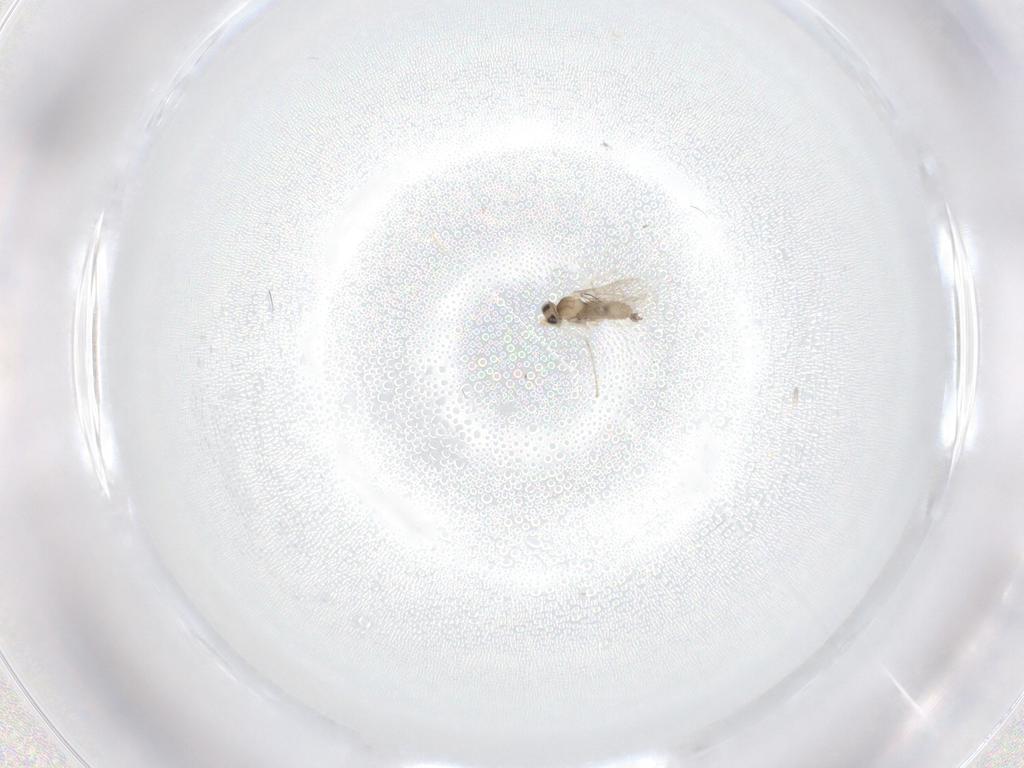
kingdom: Animalia
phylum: Arthropoda
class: Insecta
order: Diptera
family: Cecidomyiidae
